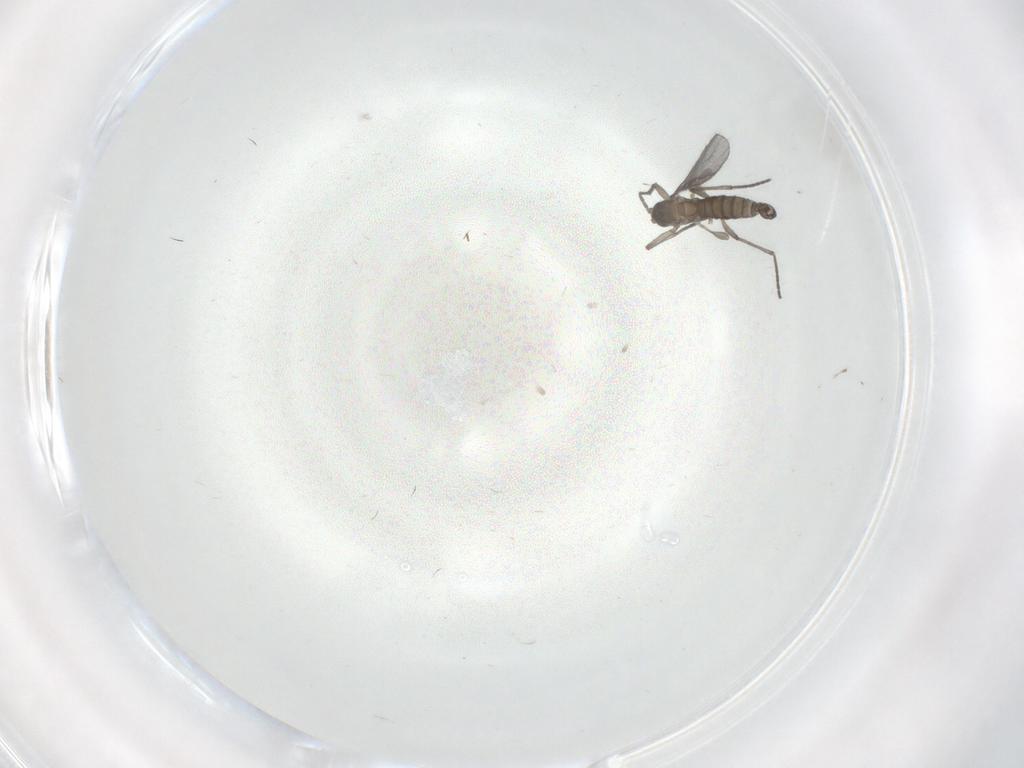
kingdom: Animalia
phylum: Arthropoda
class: Insecta
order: Diptera
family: Sciaridae
